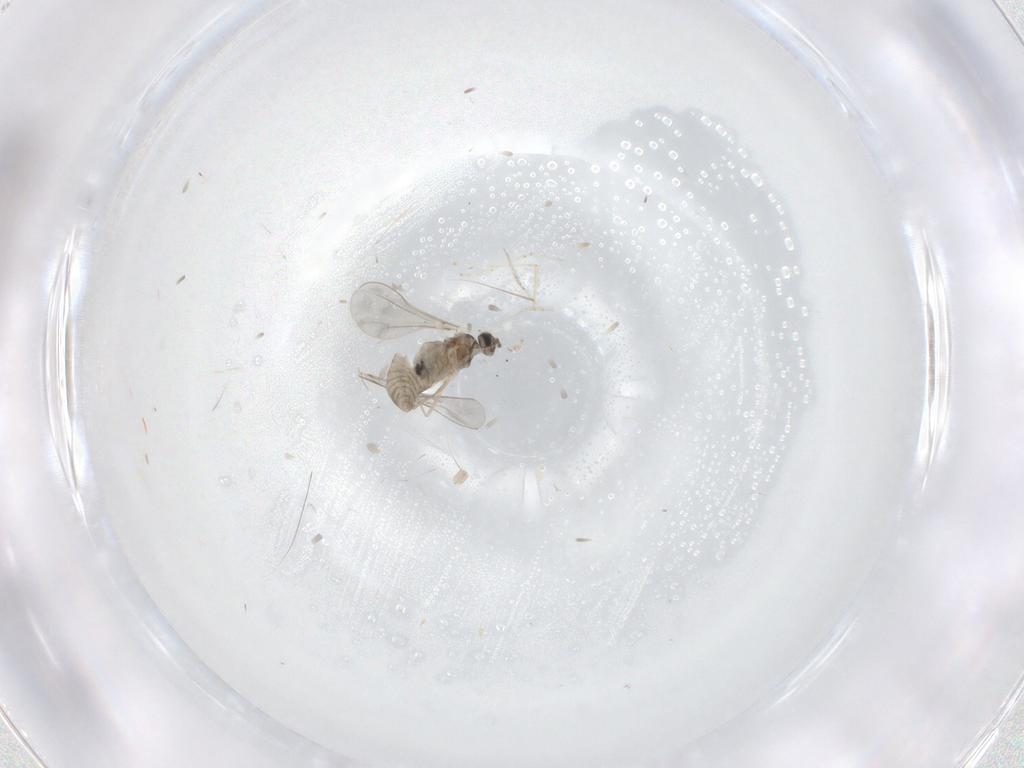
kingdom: Animalia
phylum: Arthropoda
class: Insecta
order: Diptera
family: Cecidomyiidae
